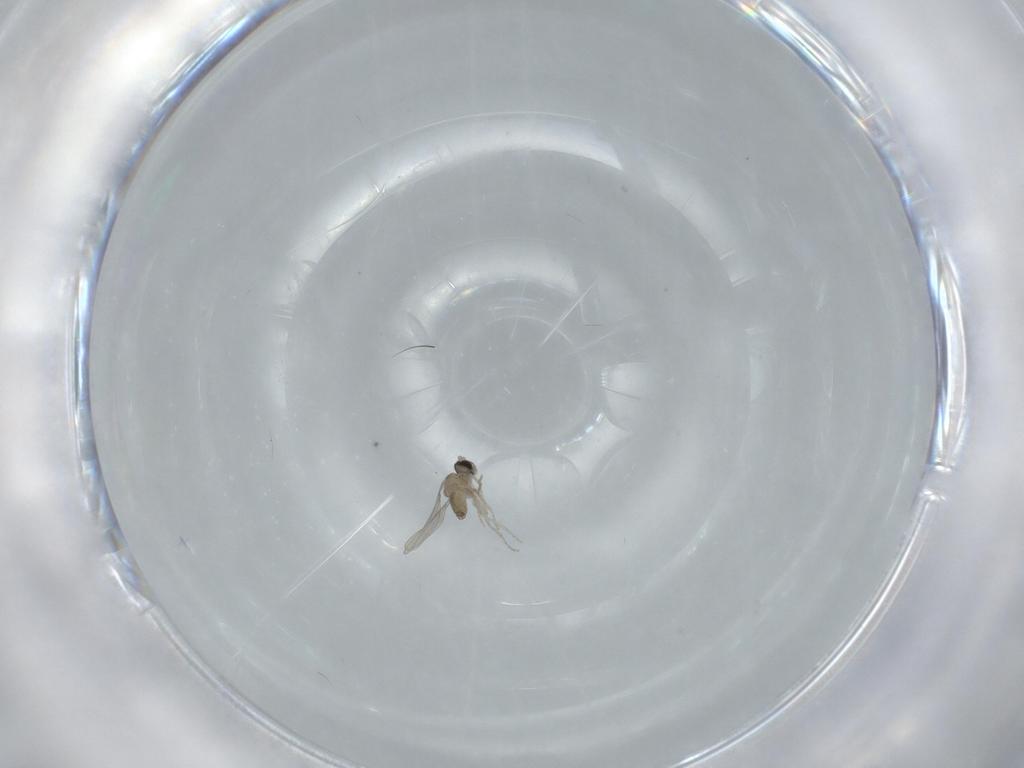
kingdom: Animalia
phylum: Arthropoda
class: Insecta
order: Diptera
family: Cecidomyiidae
